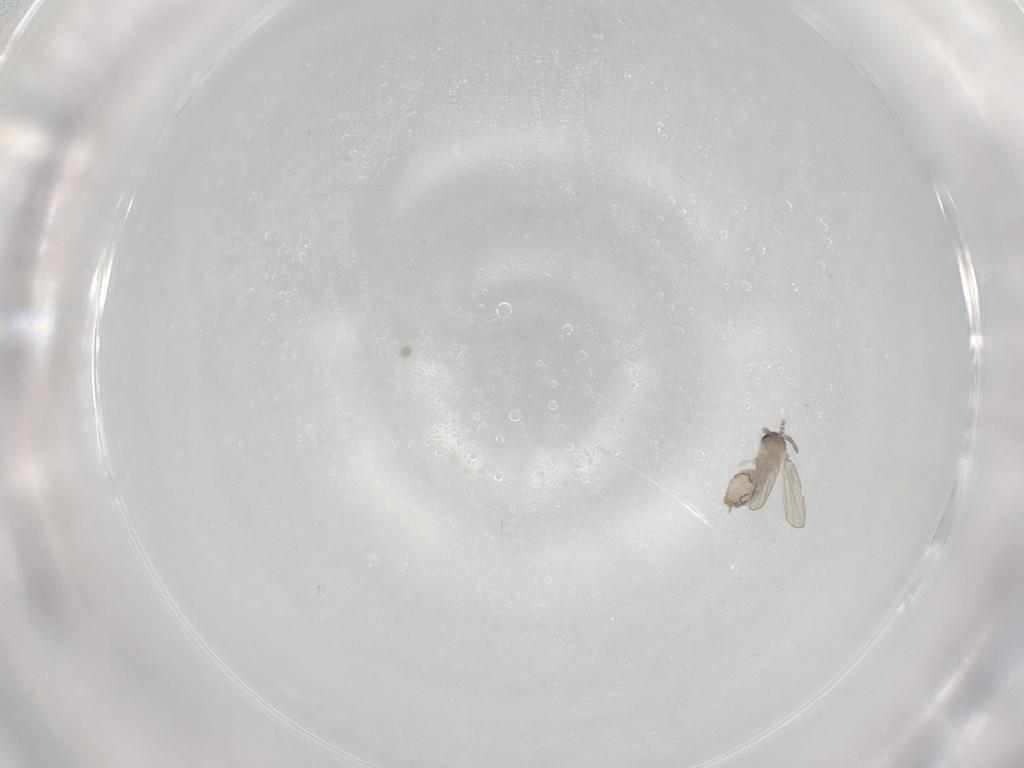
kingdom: Animalia
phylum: Arthropoda
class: Insecta
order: Diptera
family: Psychodidae
